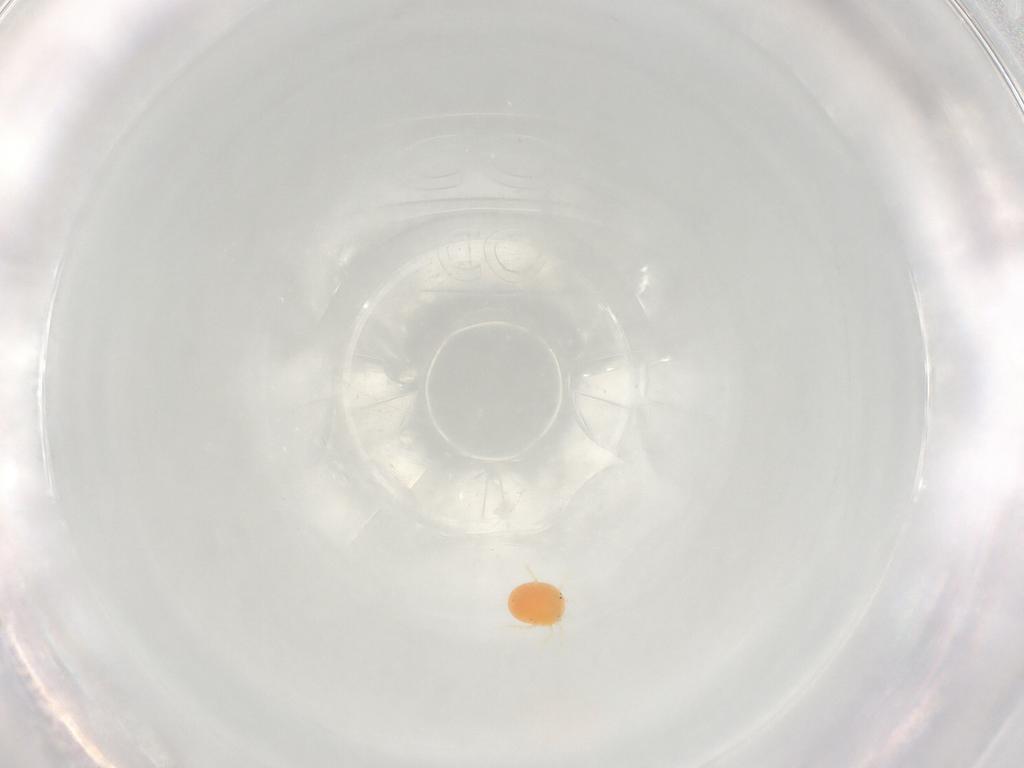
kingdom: Animalia
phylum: Arthropoda
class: Arachnida
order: Trombidiformes
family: Hydryphantidae
